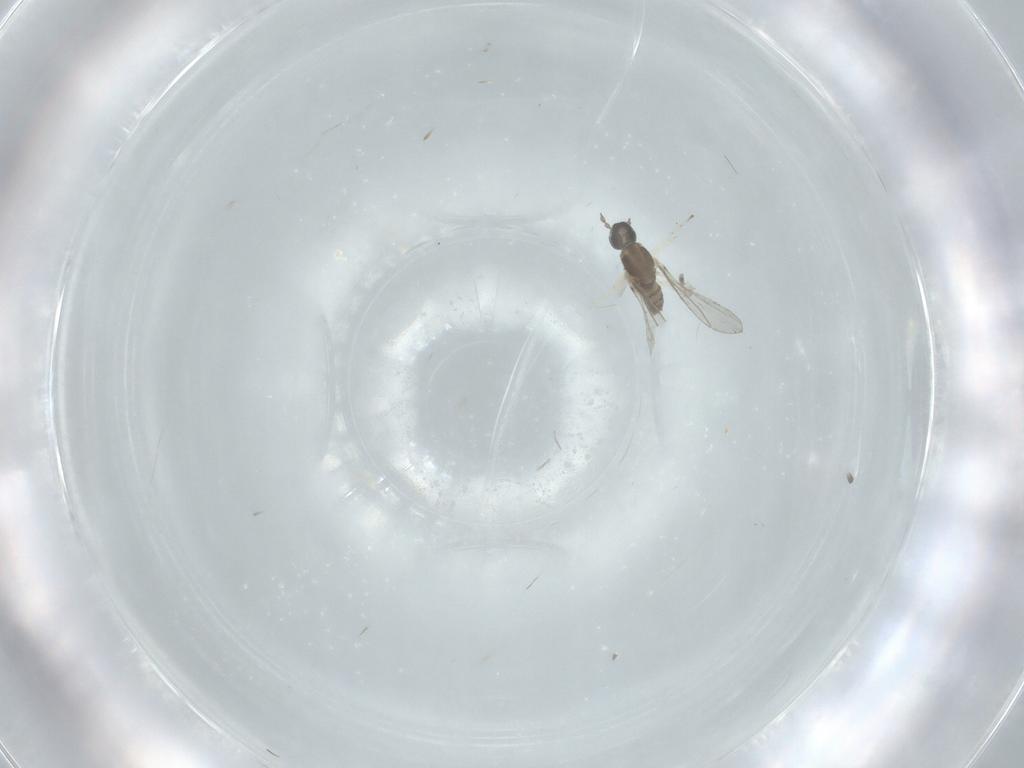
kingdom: Animalia
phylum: Arthropoda
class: Insecta
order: Diptera
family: Cecidomyiidae
